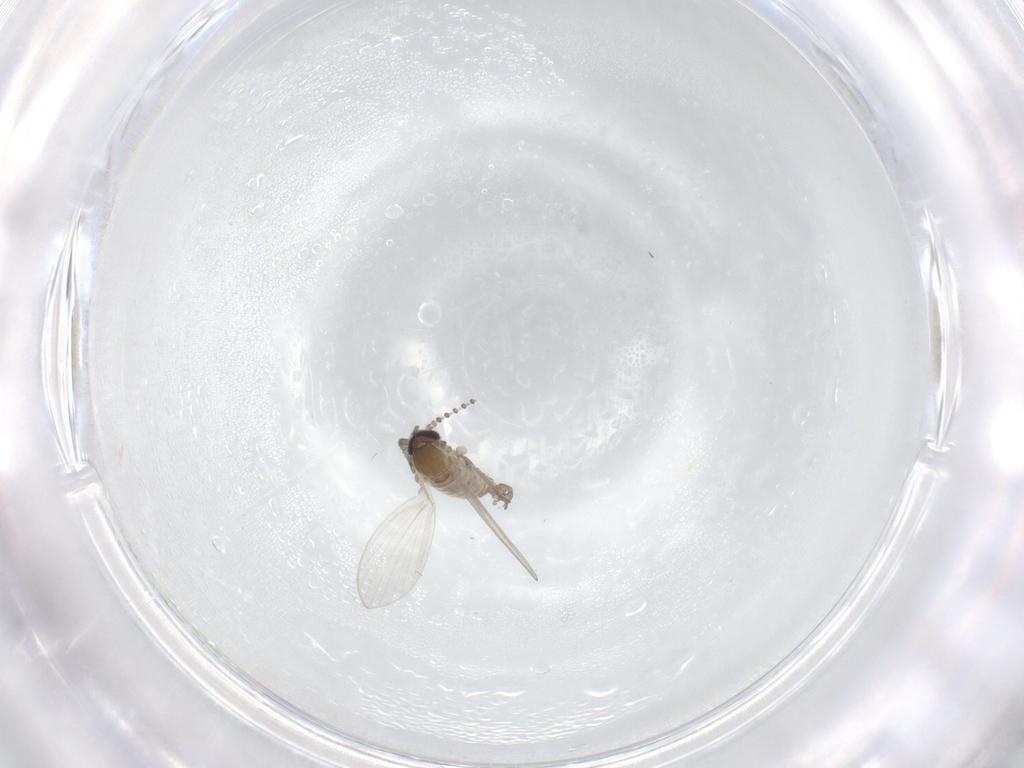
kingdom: Animalia
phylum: Arthropoda
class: Insecta
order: Diptera
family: Psychodidae
